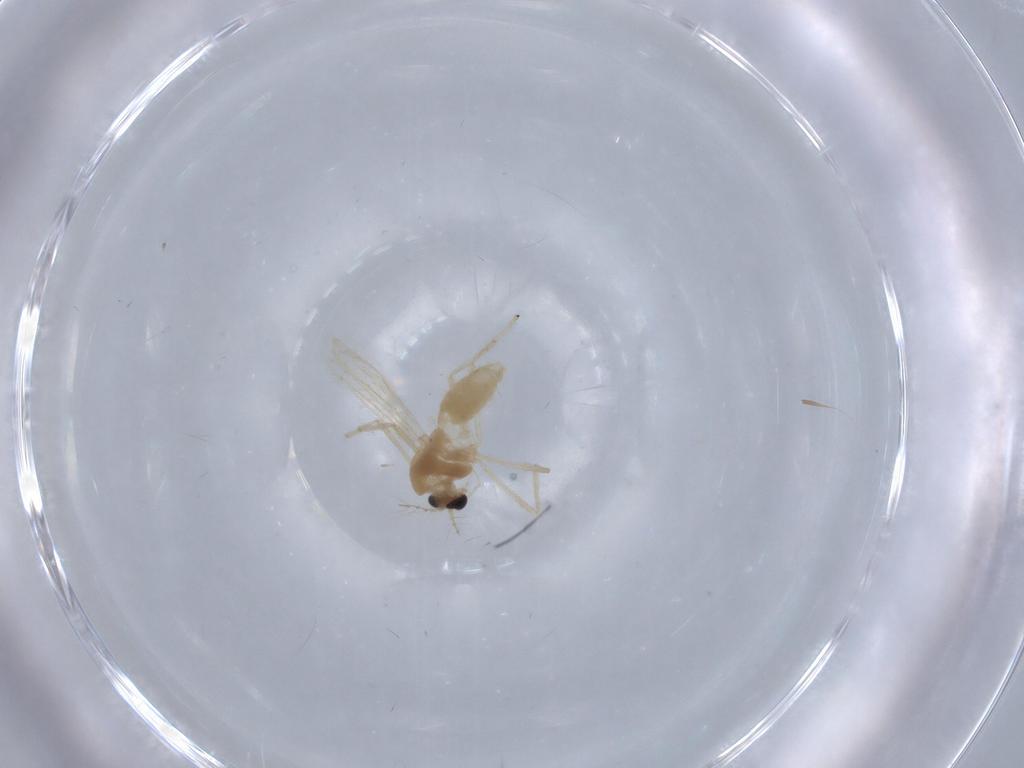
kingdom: Animalia
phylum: Arthropoda
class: Insecta
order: Diptera
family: Chironomidae
